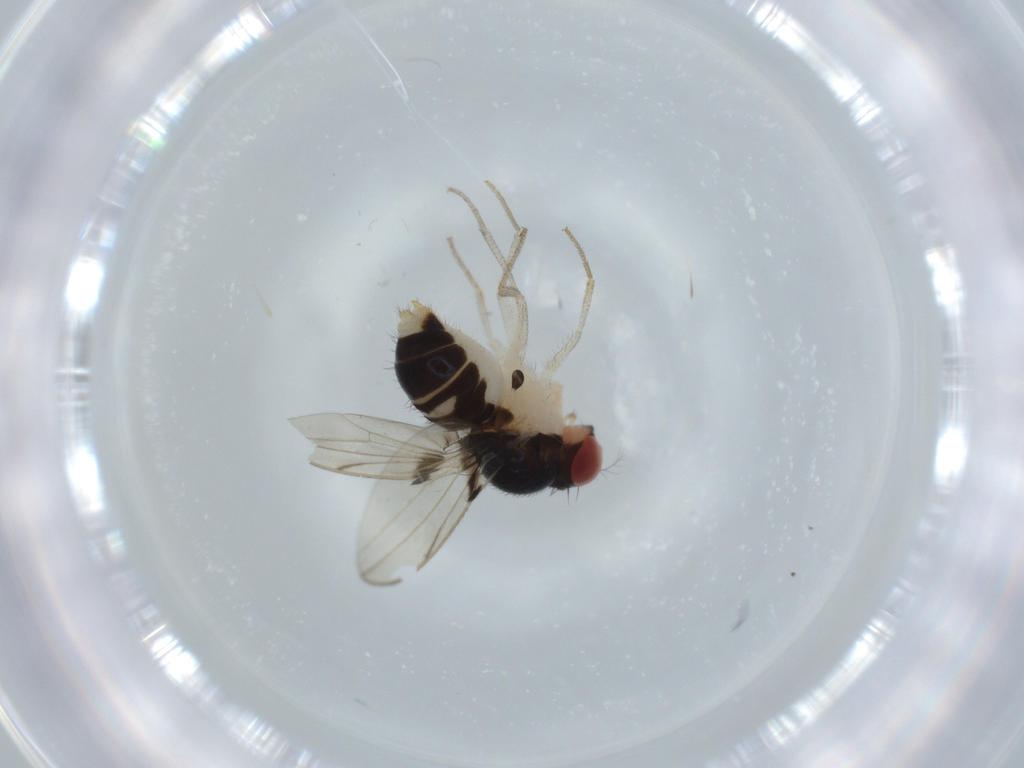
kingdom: Animalia
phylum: Arthropoda
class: Insecta
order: Diptera
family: Drosophilidae
